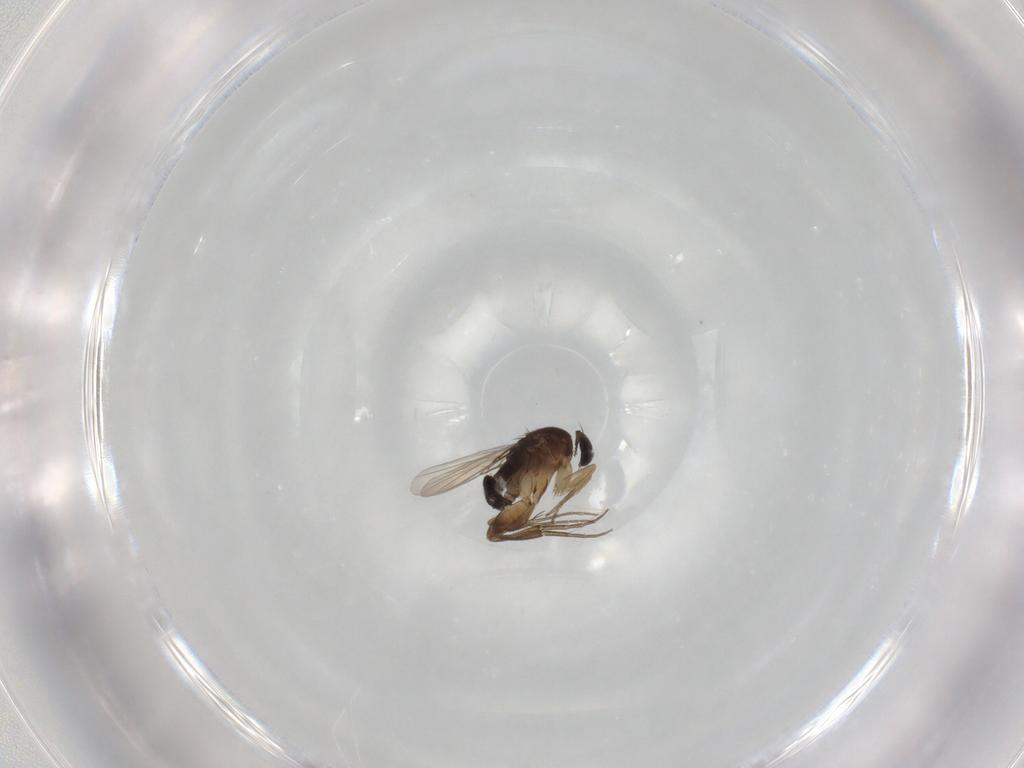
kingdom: Animalia
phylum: Arthropoda
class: Insecta
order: Diptera
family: Phoridae
